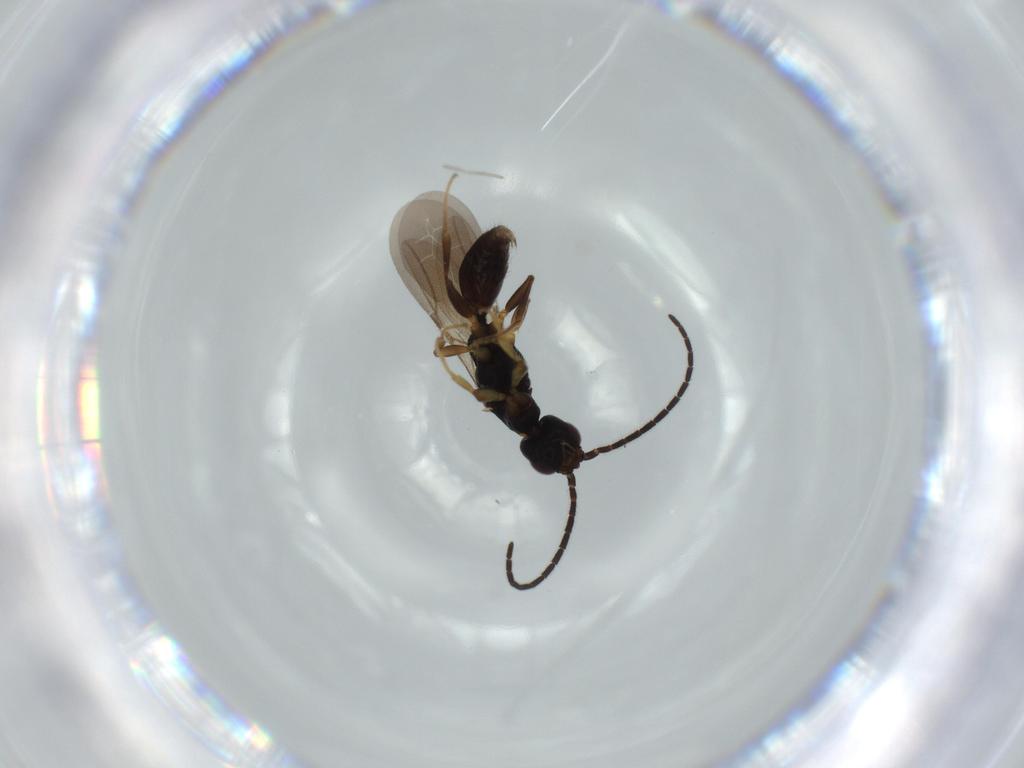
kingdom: Animalia
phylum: Arthropoda
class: Insecta
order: Hymenoptera
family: Bethylidae
